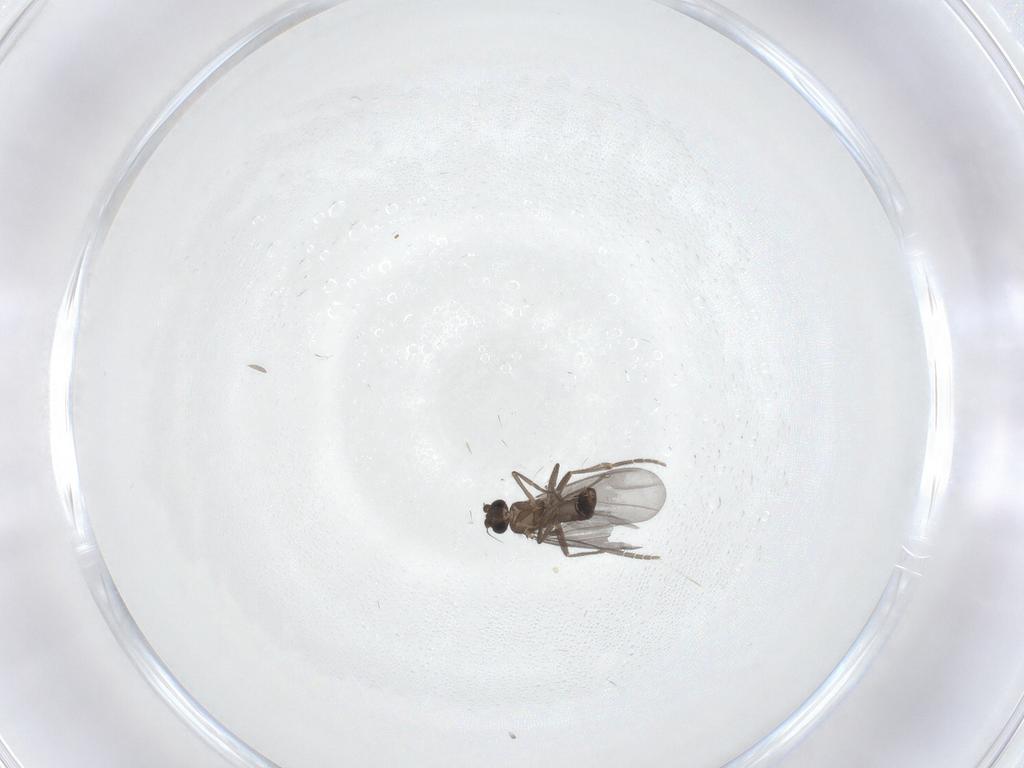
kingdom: Animalia
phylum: Arthropoda
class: Insecta
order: Diptera
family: Phoridae
